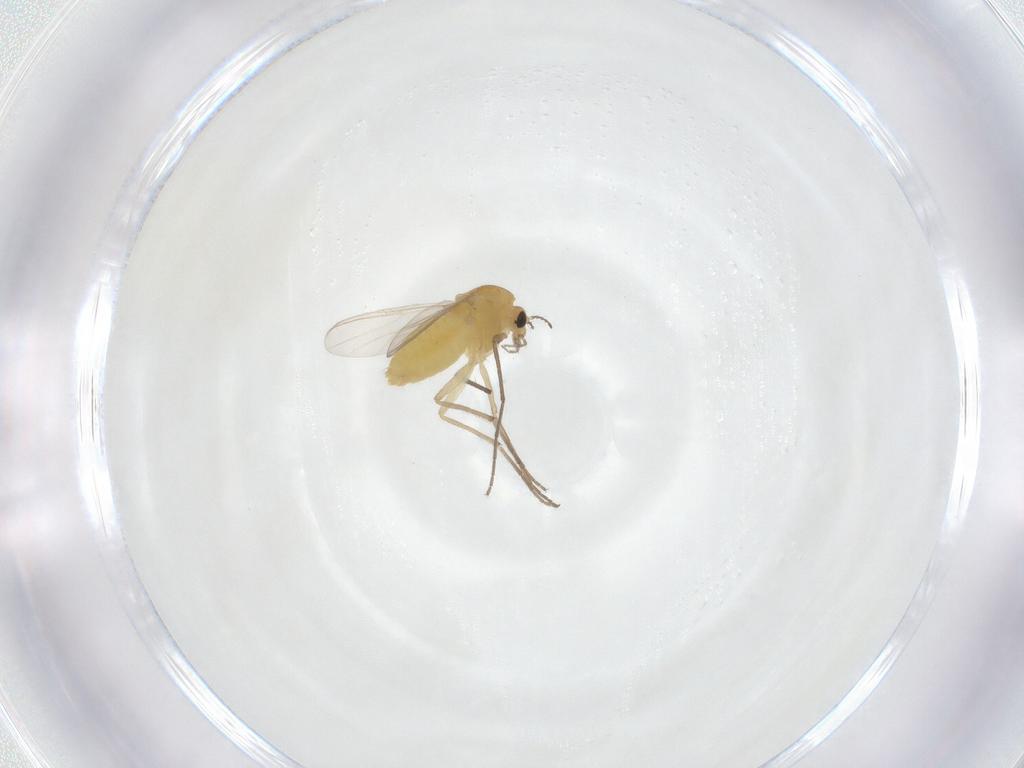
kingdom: Animalia
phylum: Arthropoda
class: Insecta
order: Diptera
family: Chironomidae
